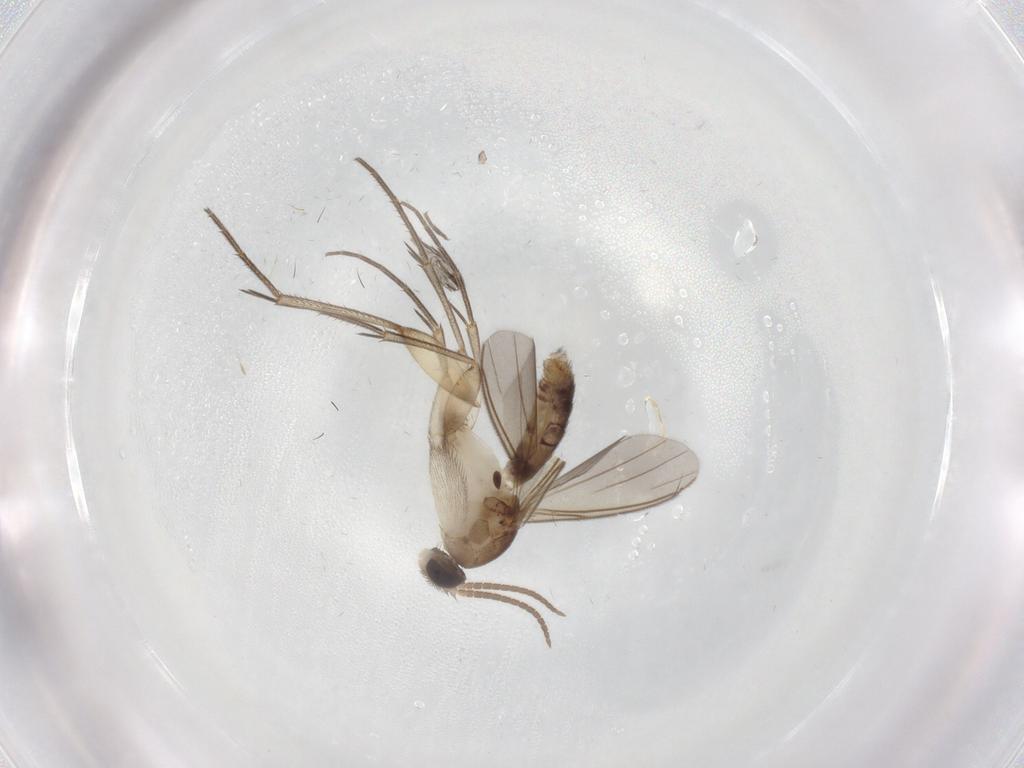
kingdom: Animalia
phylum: Arthropoda
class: Insecta
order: Diptera
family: Mycetophilidae
